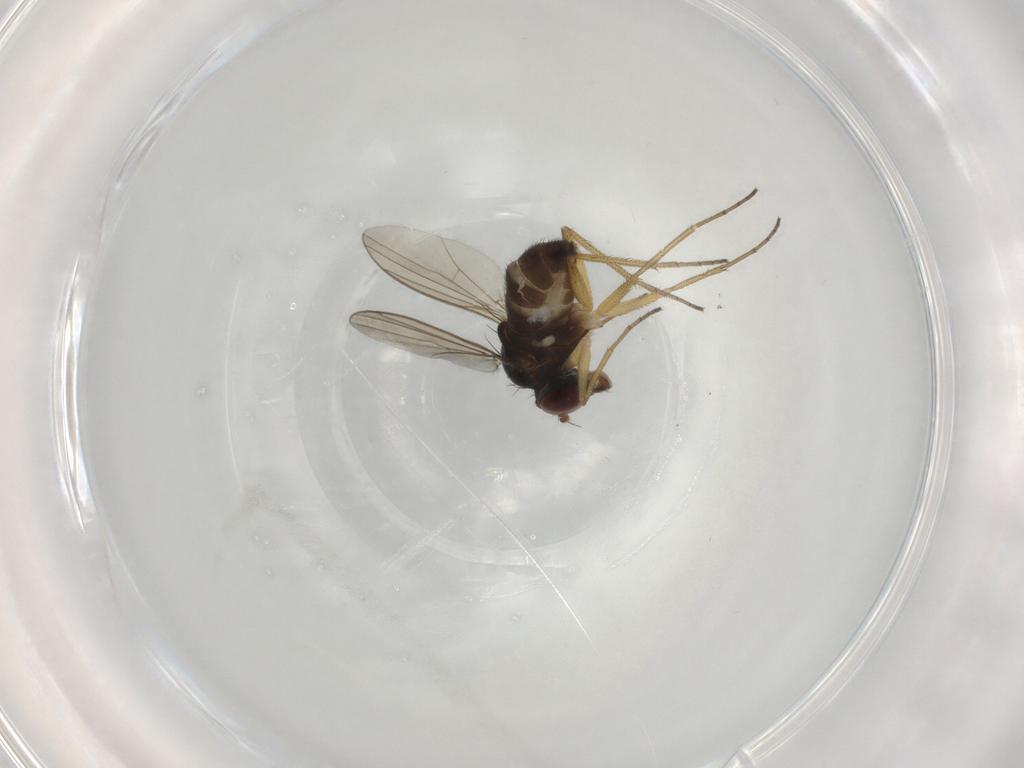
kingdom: Animalia
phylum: Arthropoda
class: Insecta
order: Diptera
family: Dolichopodidae
